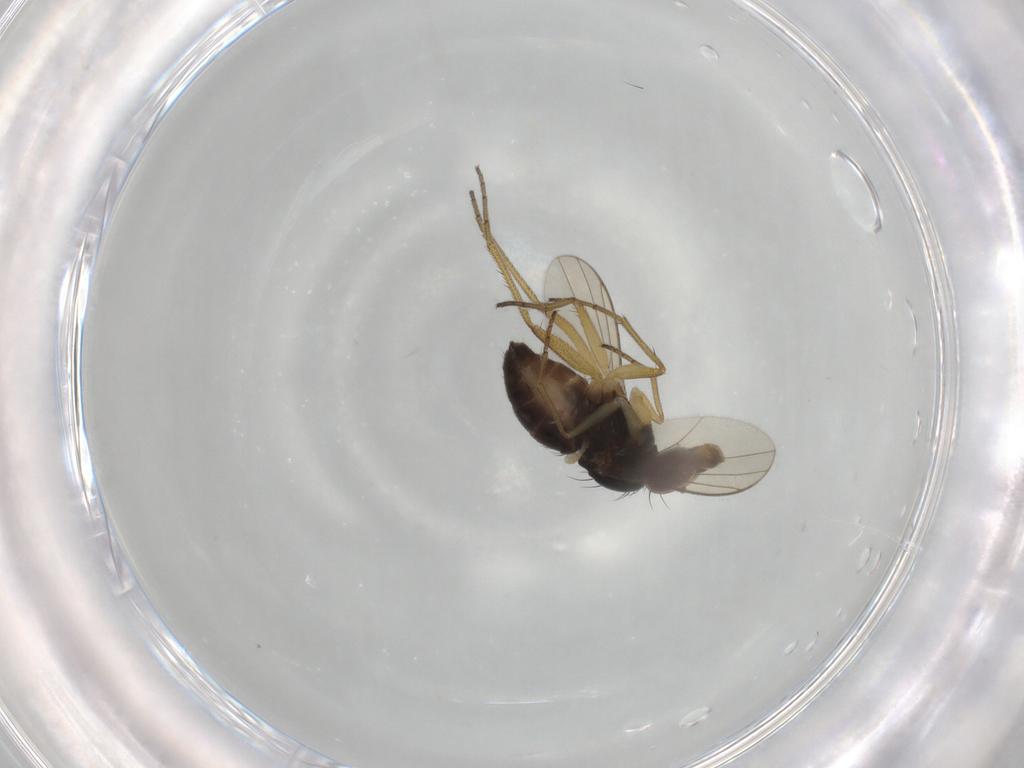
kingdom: Animalia
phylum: Arthropoda
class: Insecta
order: Diptera
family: Dolichopodidae
